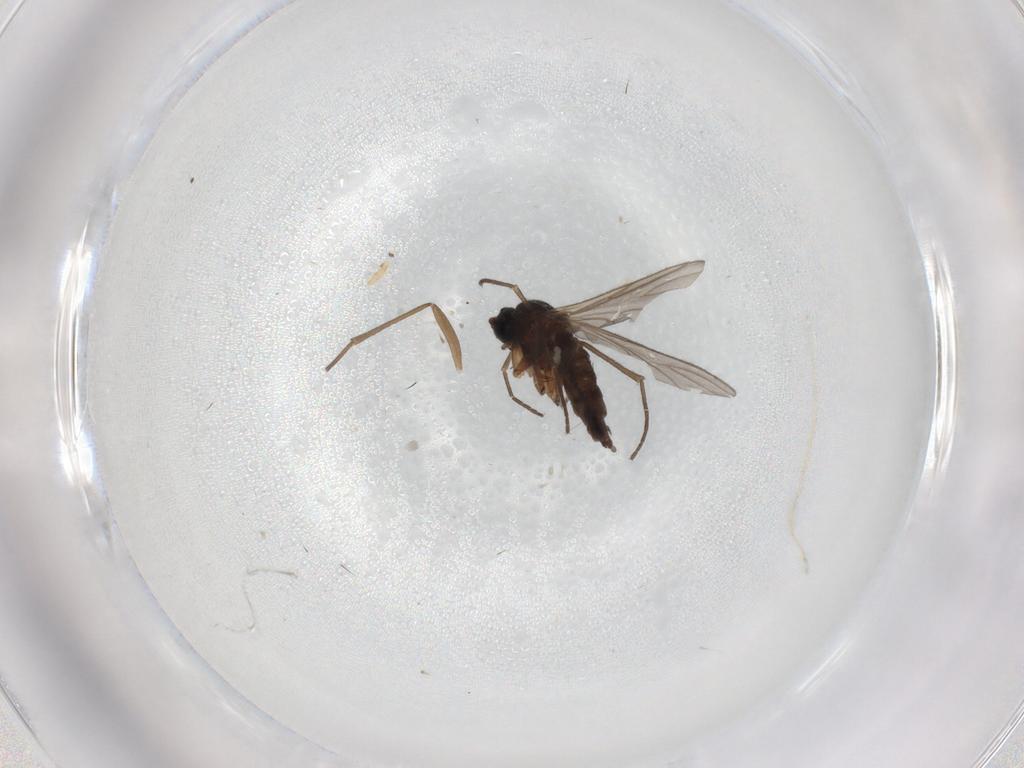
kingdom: Animalia
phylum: Arthropoda
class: Insecta
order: Diptera
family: Sciaridae
